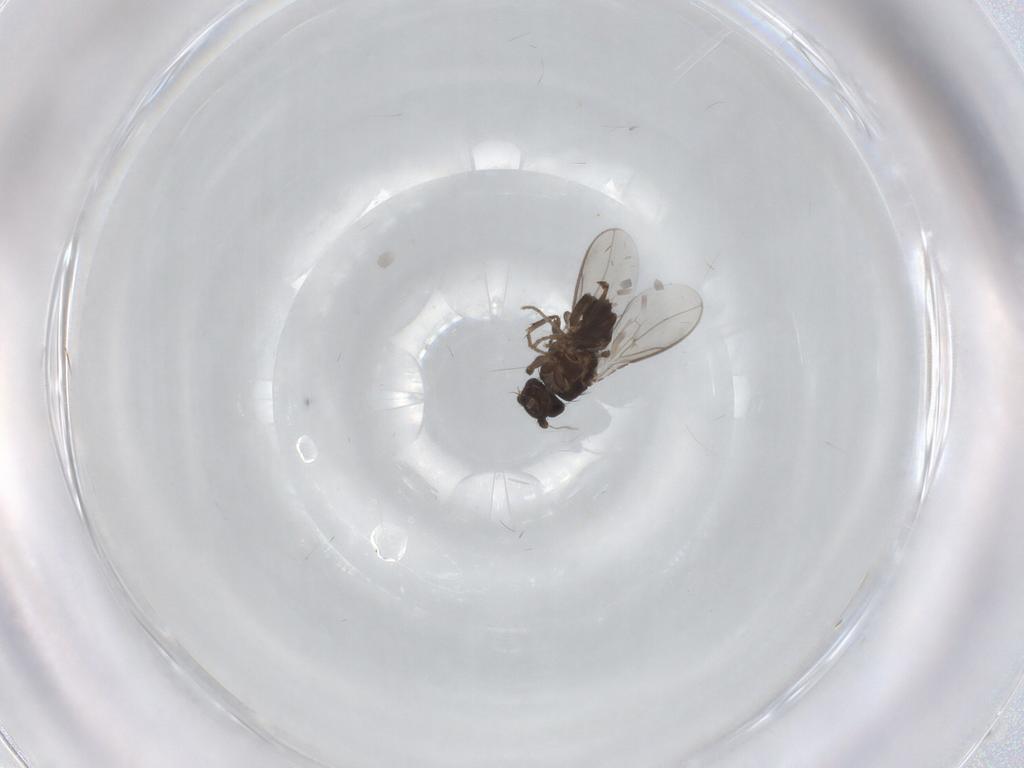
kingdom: Animalia
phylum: Arthropoda
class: Insecta
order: Diptera
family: Sphaeroceridae
